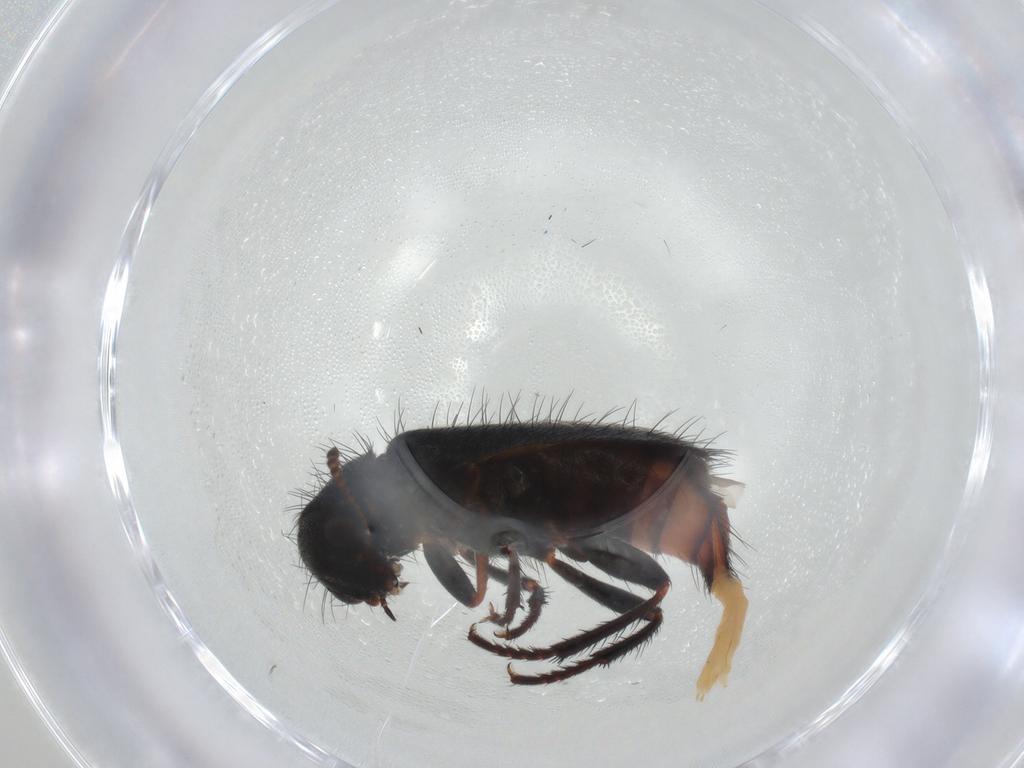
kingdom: Animalia
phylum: Arthropoda
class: Insecta
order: Coleoptera
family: Melyridae
